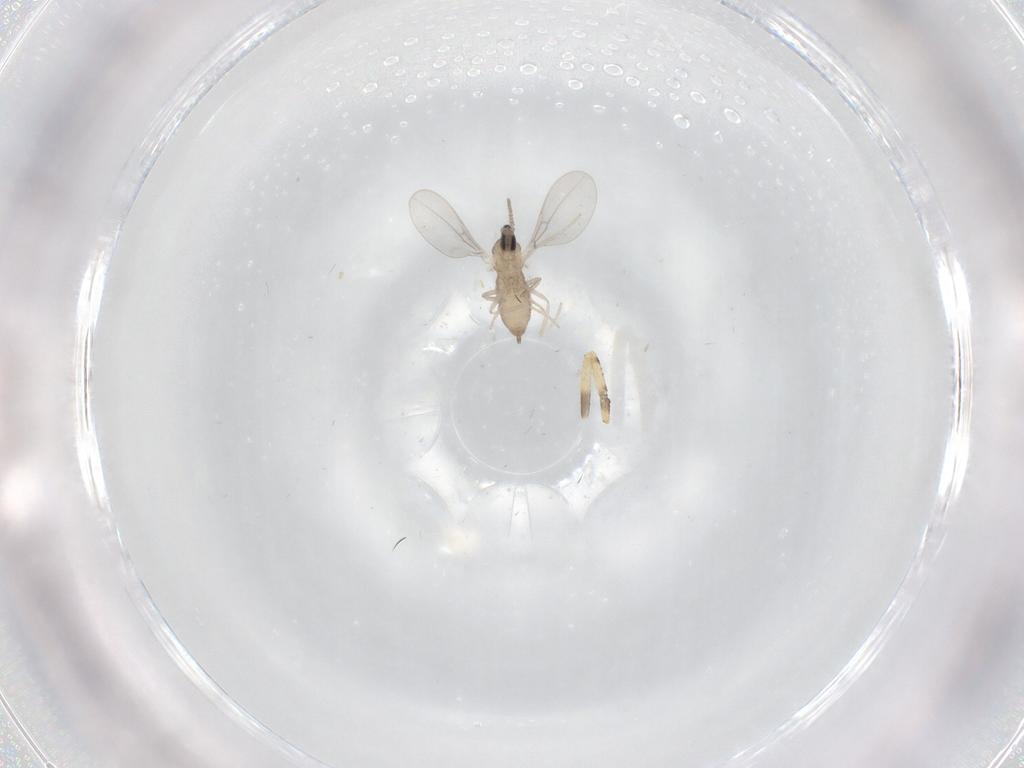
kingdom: Animalia
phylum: Arthropoda
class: Insecta
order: Diptera
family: Cecidomyiidae
